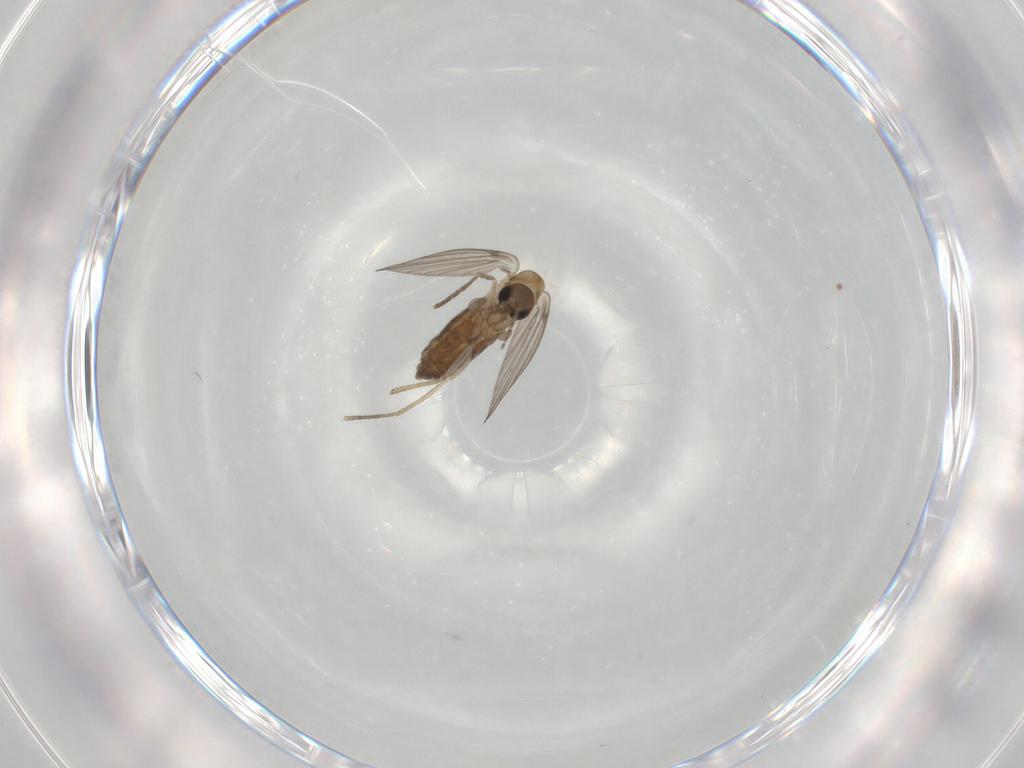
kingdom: Animalia
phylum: Arthropoda
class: Insecta
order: Diptera
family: Psychodidae
